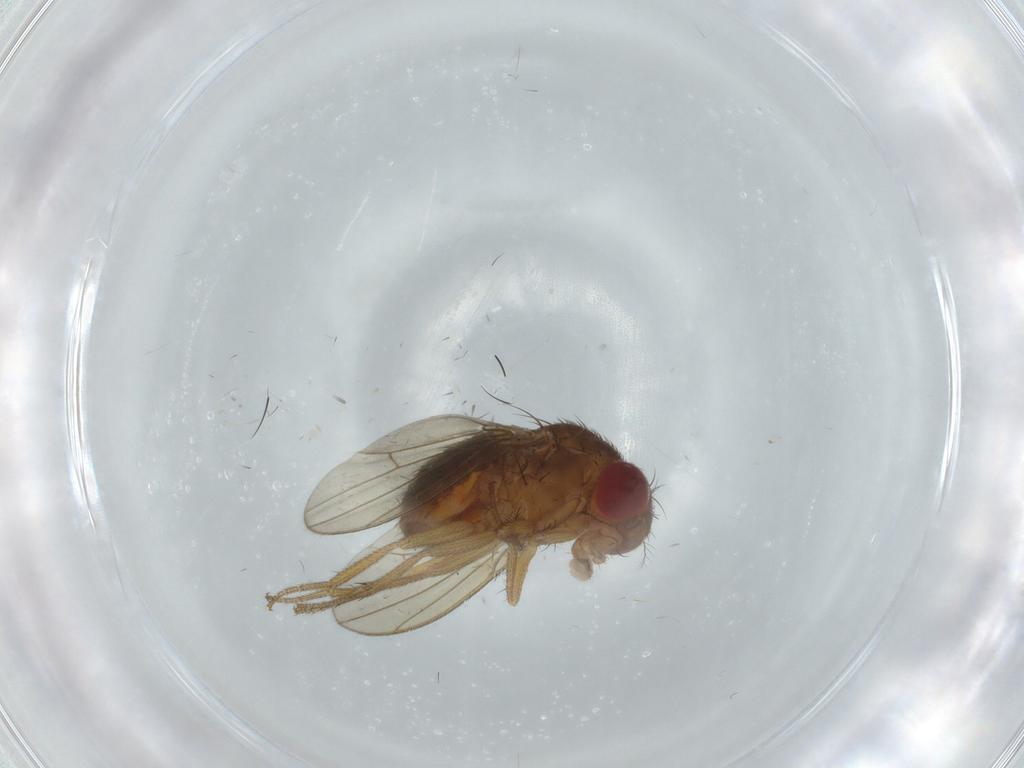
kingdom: Animalia
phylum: Arthropoda
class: Insecta
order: Diptera
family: Drosophilidae
